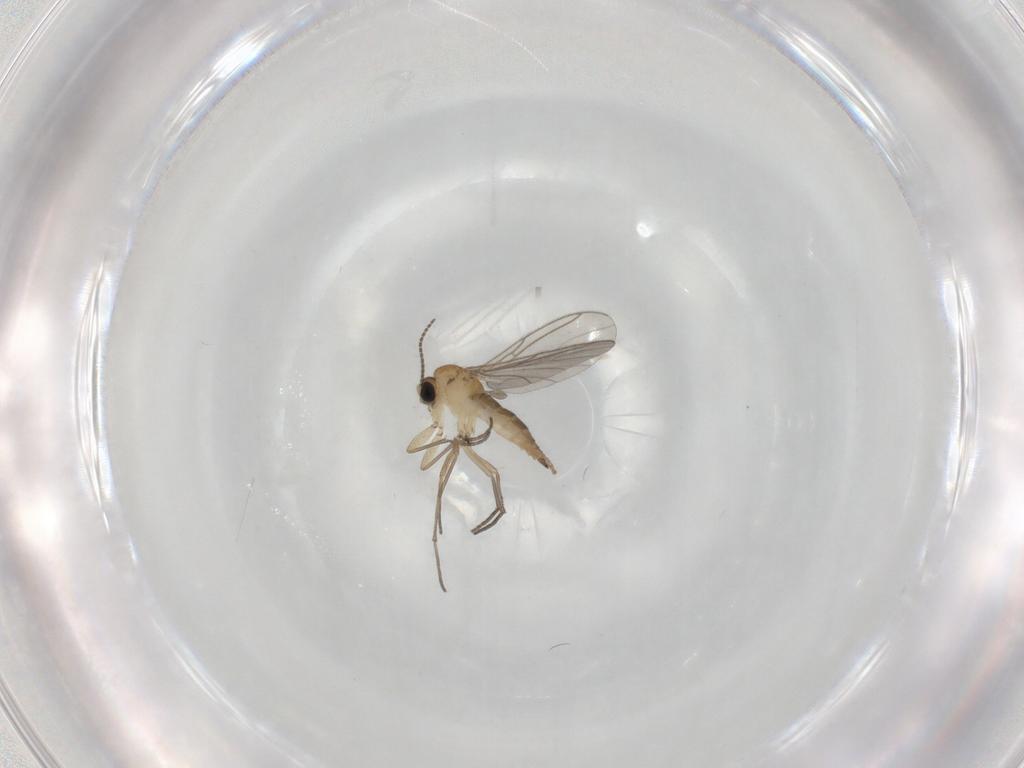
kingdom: Animalia
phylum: Arthropoda
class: Insecta
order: Diptera
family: Sciaridae
